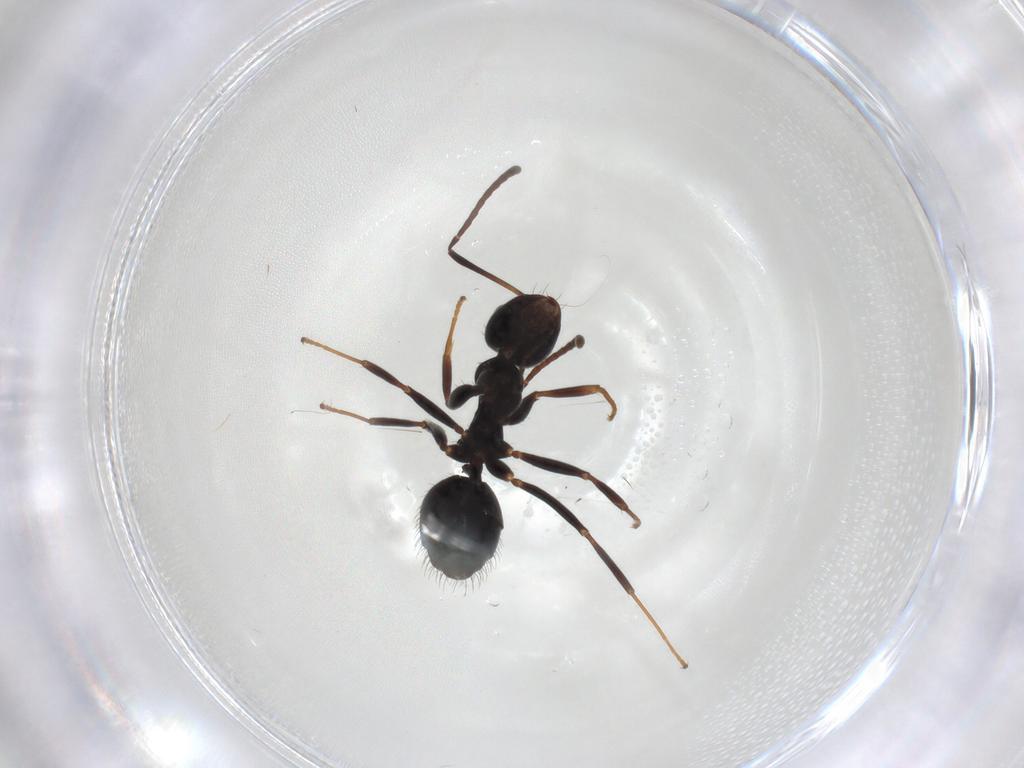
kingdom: Animalia
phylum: Arthropoda
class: Insecta
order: Hymenoptera
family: Formicidae
